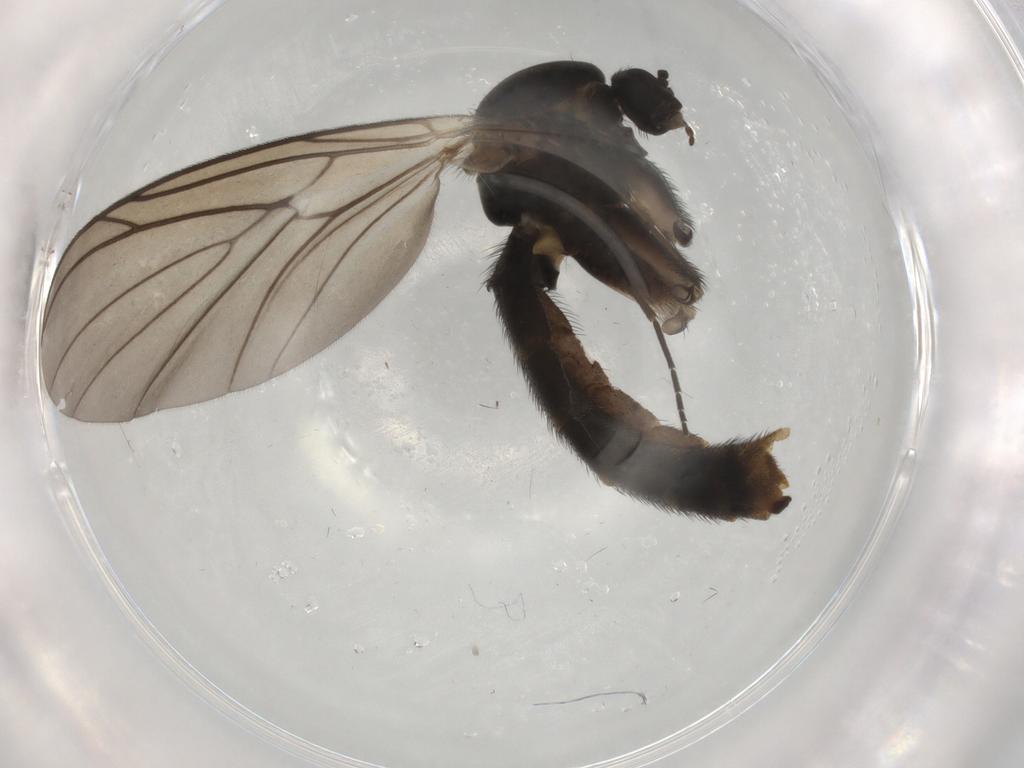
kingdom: Animalia
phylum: Arthropoda
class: Insecta
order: Diptera
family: Keroplatidae
